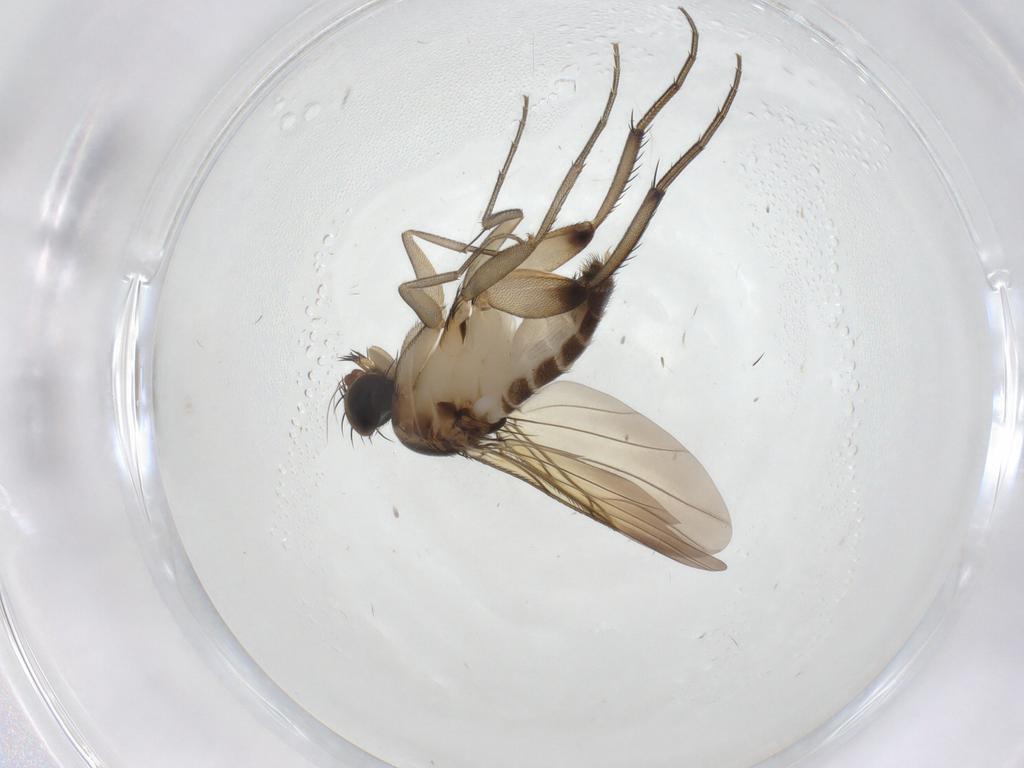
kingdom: Animalia
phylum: Arthropoda
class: Insecta
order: Diptera
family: Phoridae
